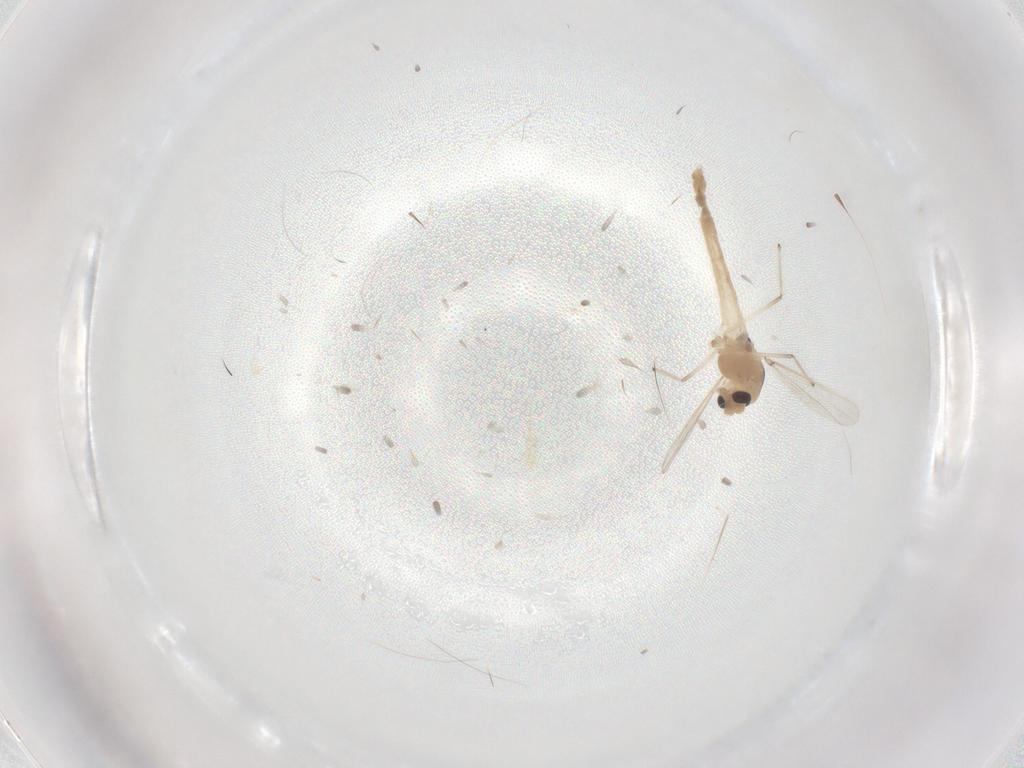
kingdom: Animalia
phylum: Arthropoda
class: Insecta
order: Diptera
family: Chironomidae
